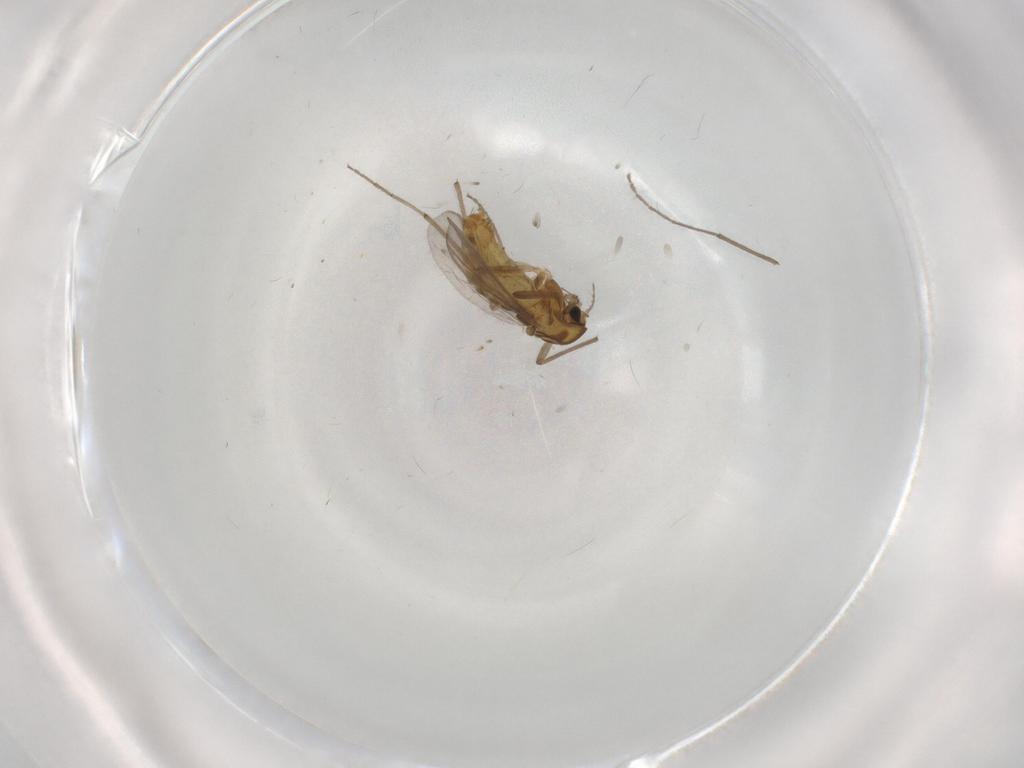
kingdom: Animalia
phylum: Arthropoda
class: Insecta
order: Diptera
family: Chironomidae
